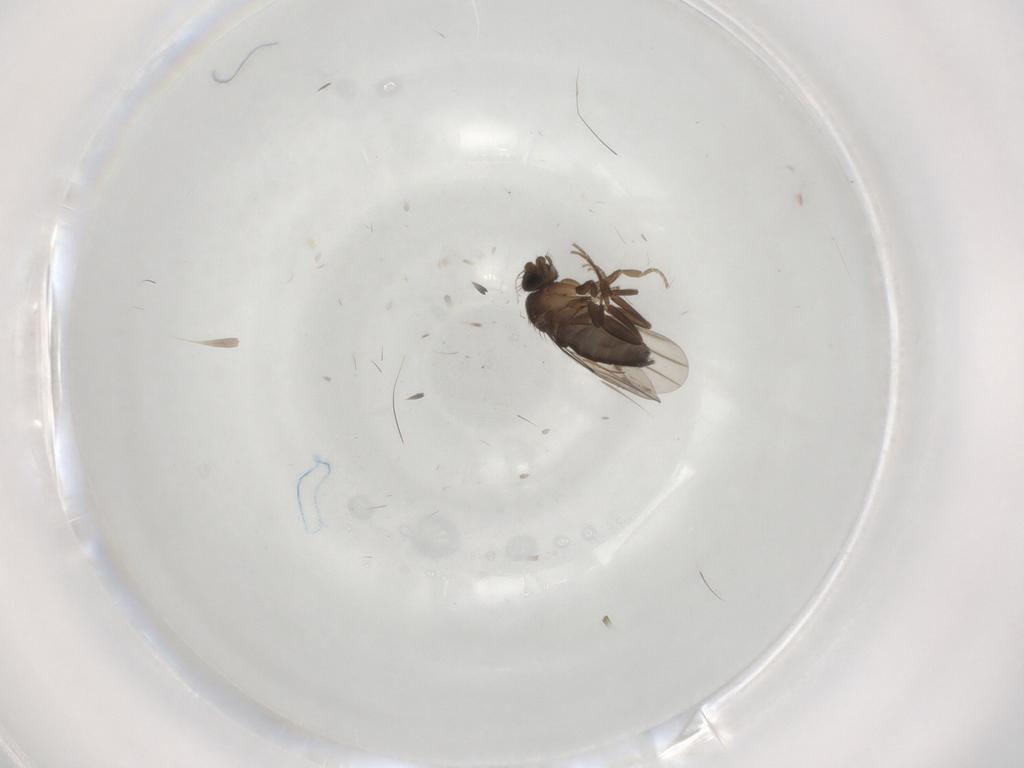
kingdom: Animalia
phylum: Arthropoda
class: Insecta
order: Diptera
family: Phoridae
